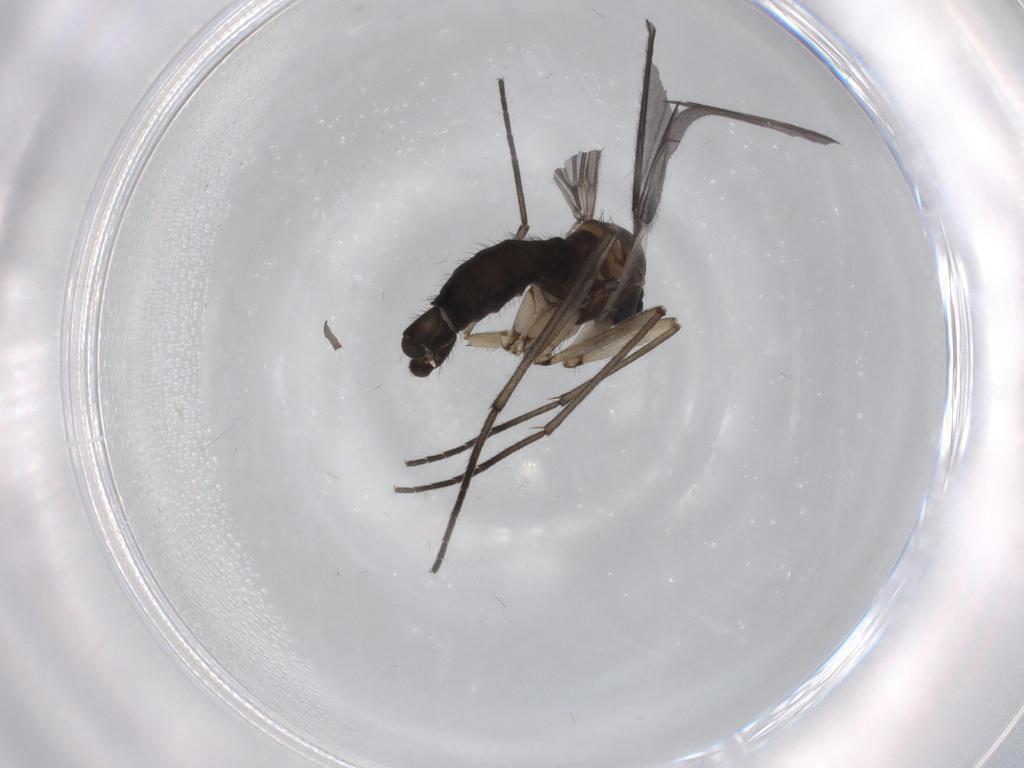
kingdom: Animalia
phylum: Arthropoda
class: Insecta
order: Diptera
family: Sciaridae
